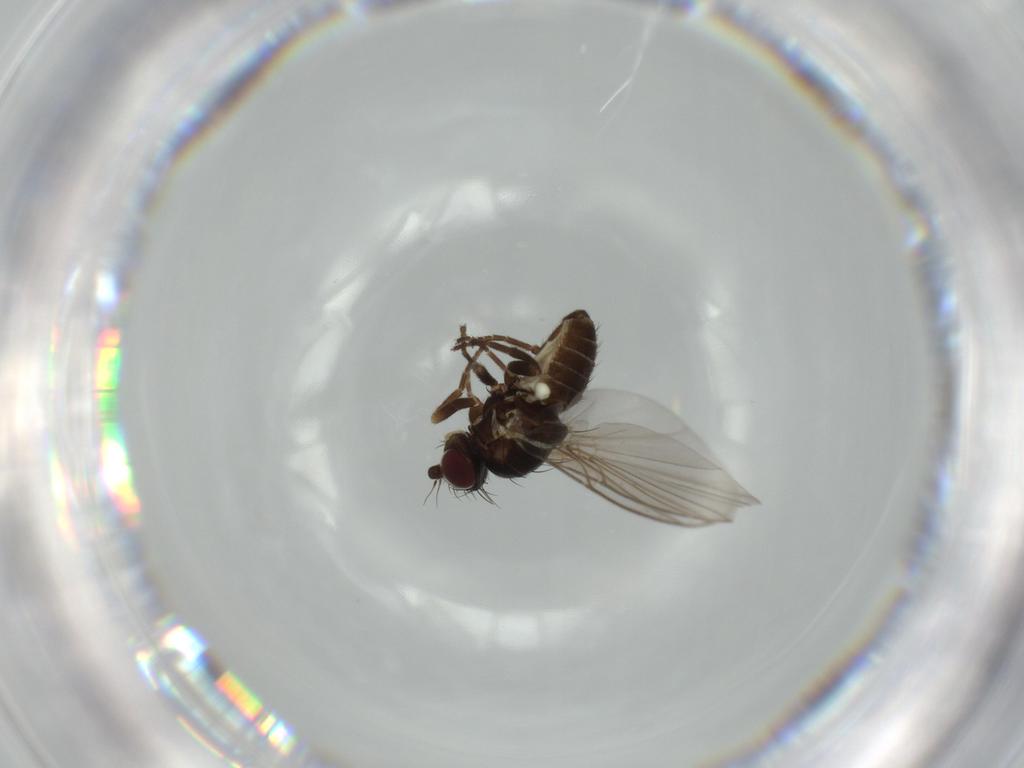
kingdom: Animalia
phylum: Arthropoda
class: Insecta
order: Diptera
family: Agromyzidae
